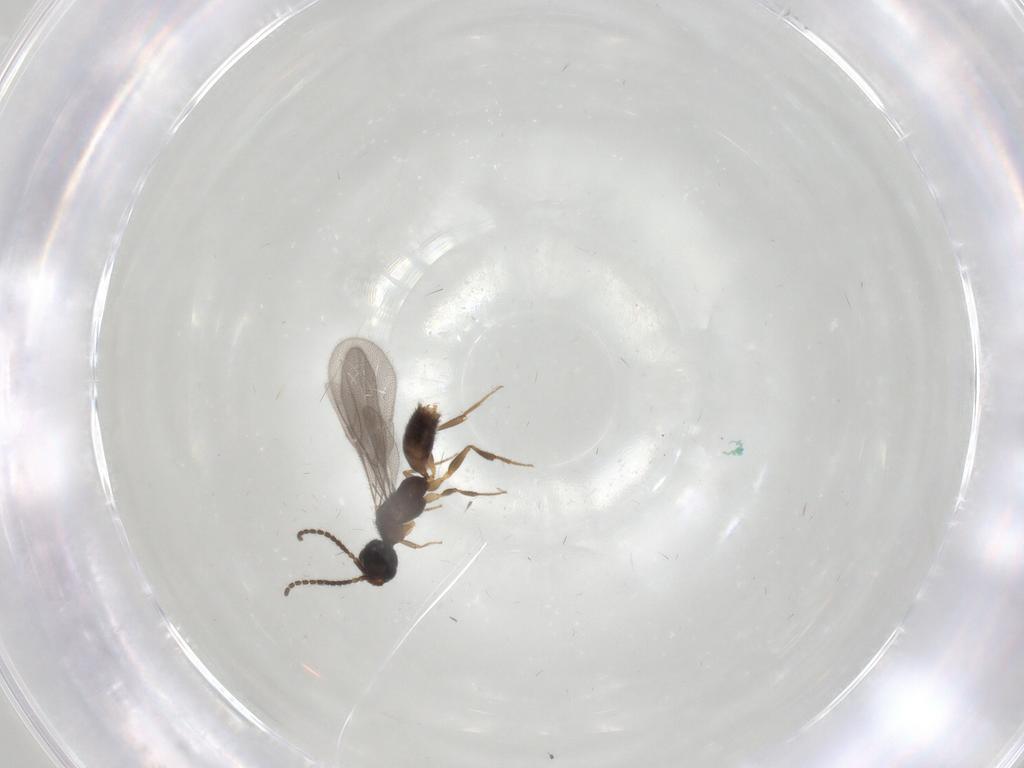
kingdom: Animalia
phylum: Arthropoda
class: Insecta
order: Hymenoptera
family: Bethylidae
